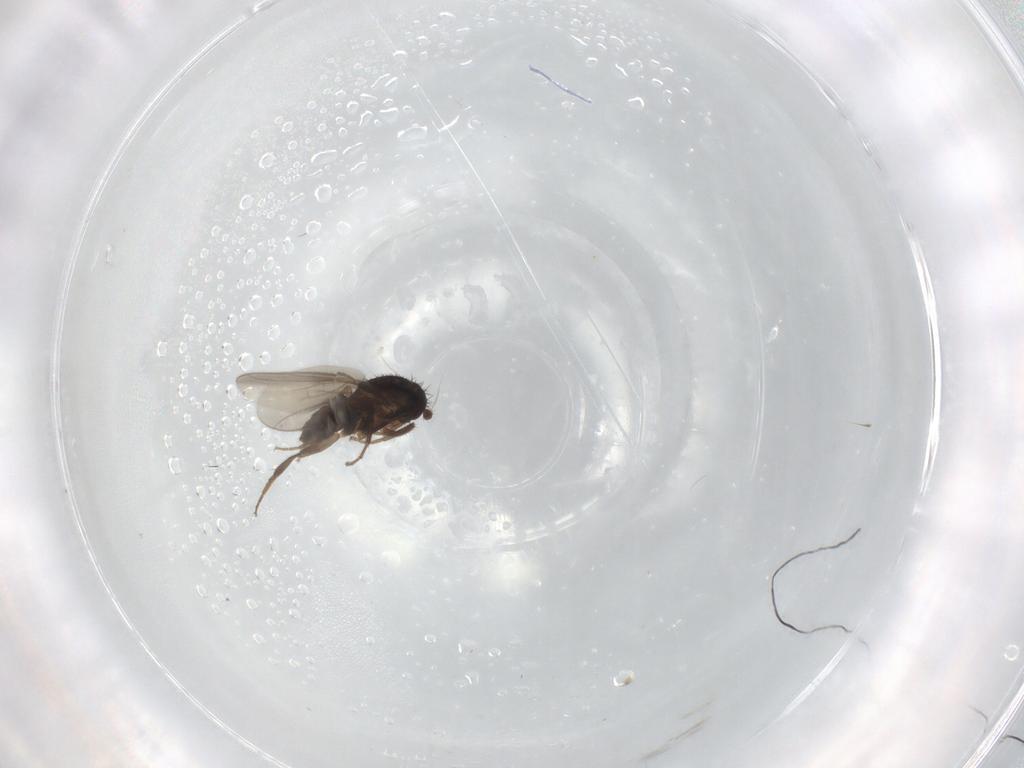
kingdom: Animalia
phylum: Arthropoda
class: Insecta
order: Diptera
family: Sphaeroceridae
